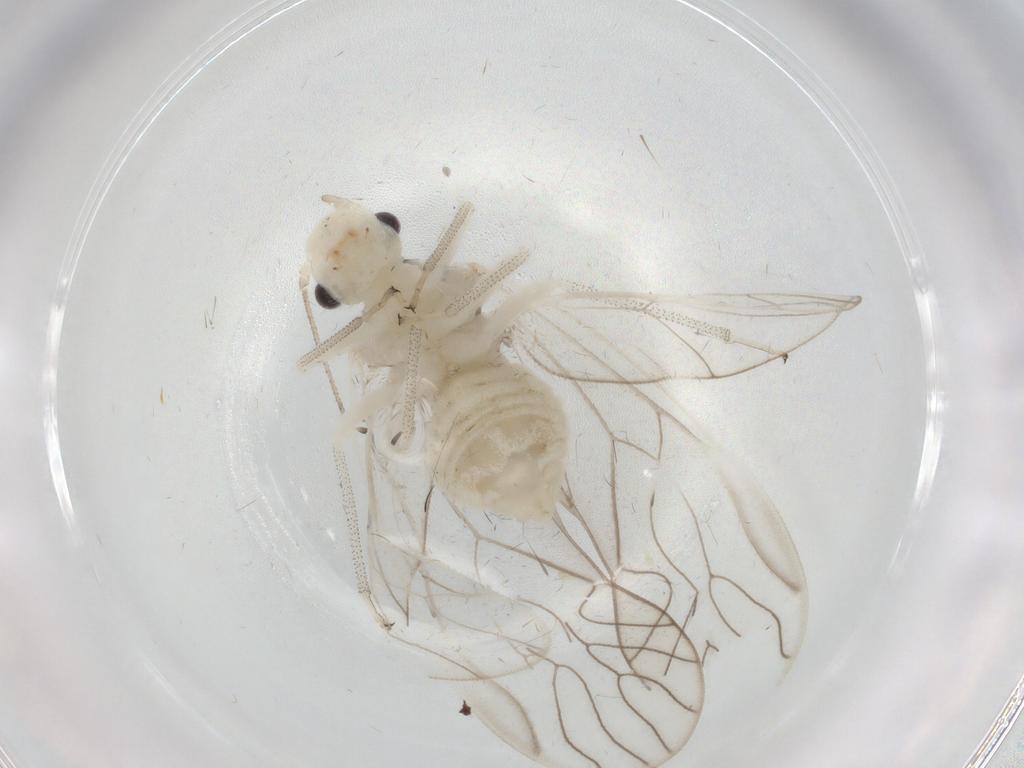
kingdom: Animalia
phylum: Arthropoda
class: Insecta
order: Psocodea
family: Amphipsocidae
